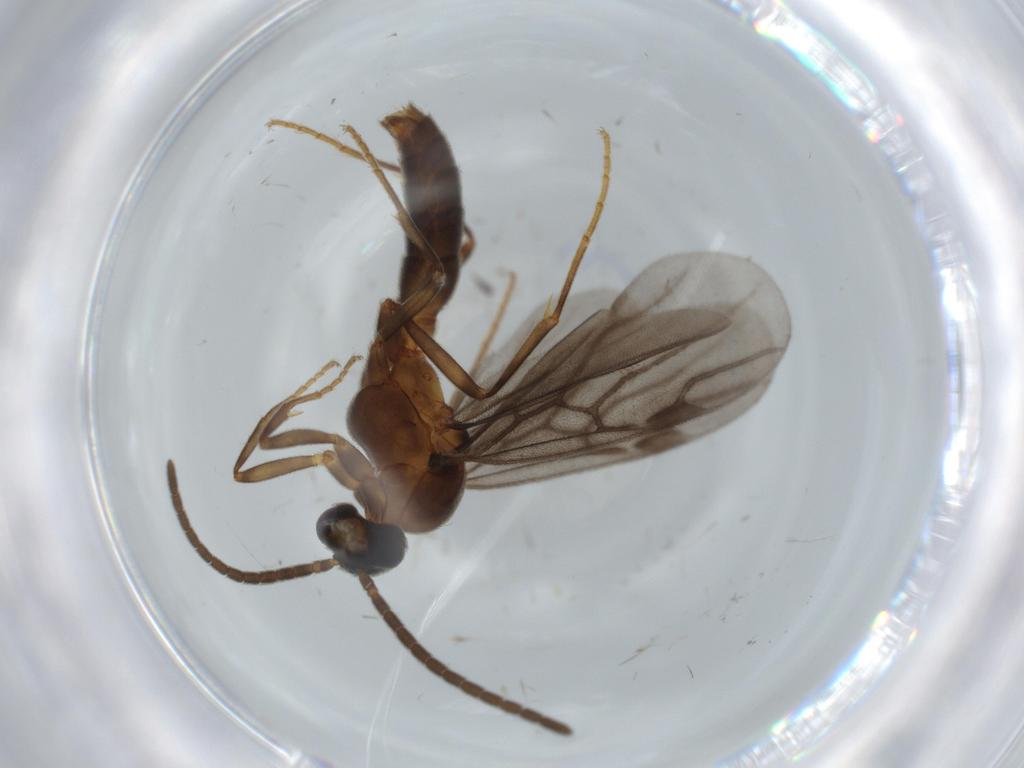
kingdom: Animalia
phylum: Arthropoda
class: Insecta
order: Hymenoptera
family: Formicidae
